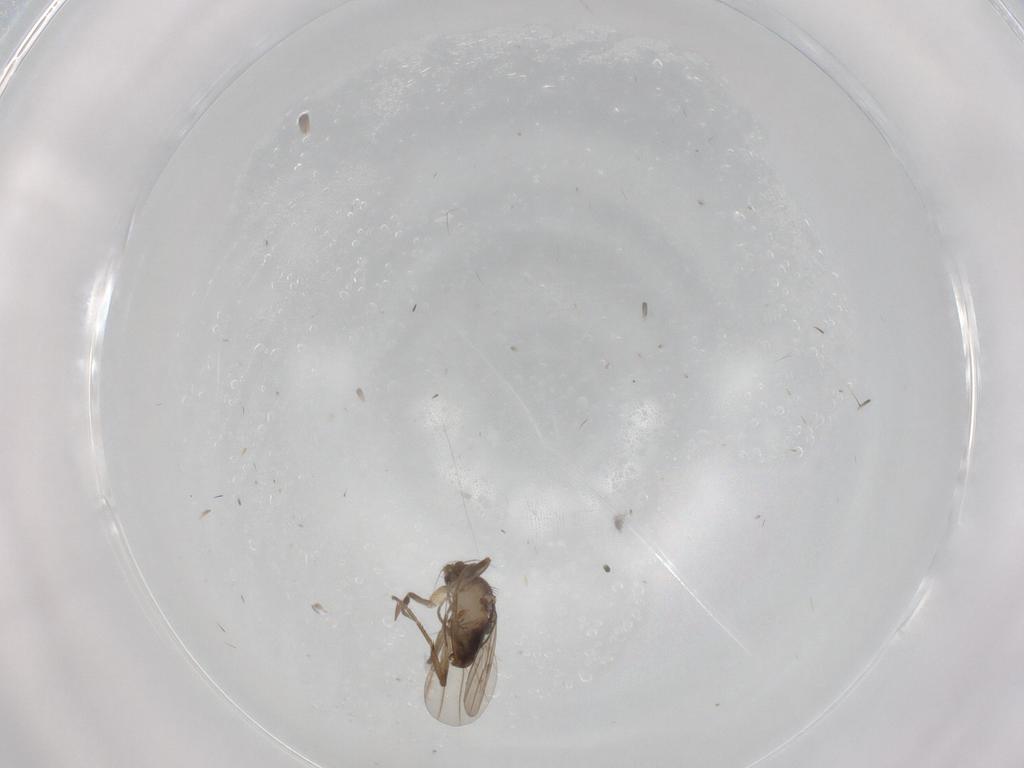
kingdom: Animalia
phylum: Arthropoda
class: Insecta
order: Diptera
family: Phoridae
